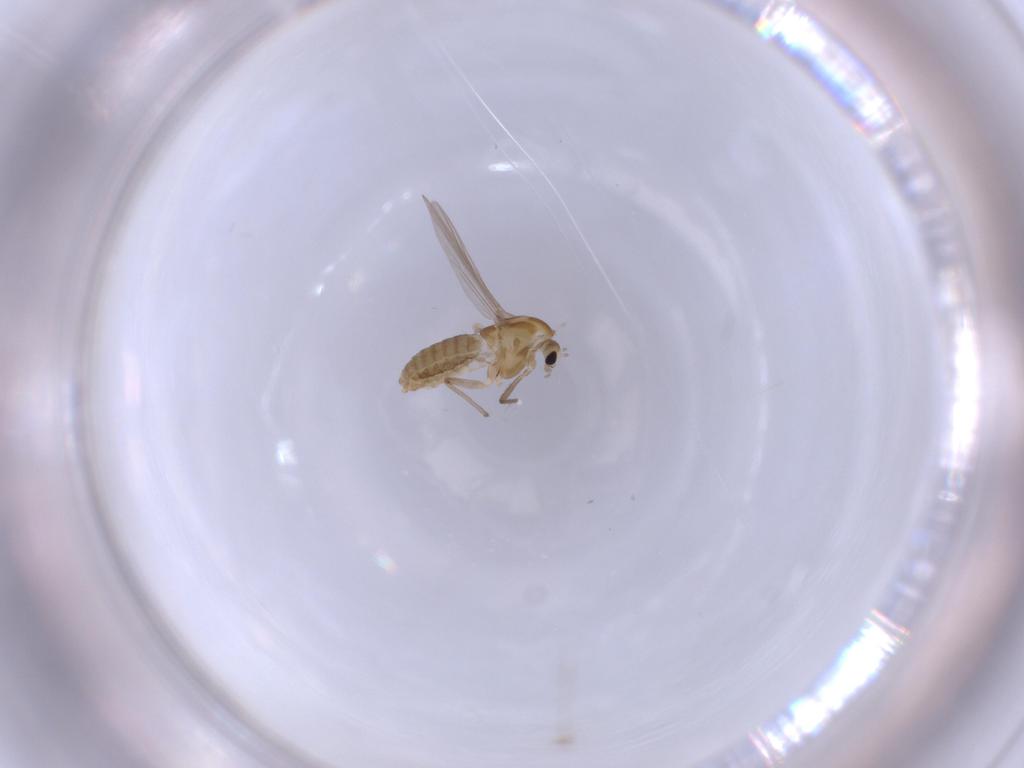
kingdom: Animalia
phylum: Arthropoda
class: Insecta
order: Diptera
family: Chironomidae
